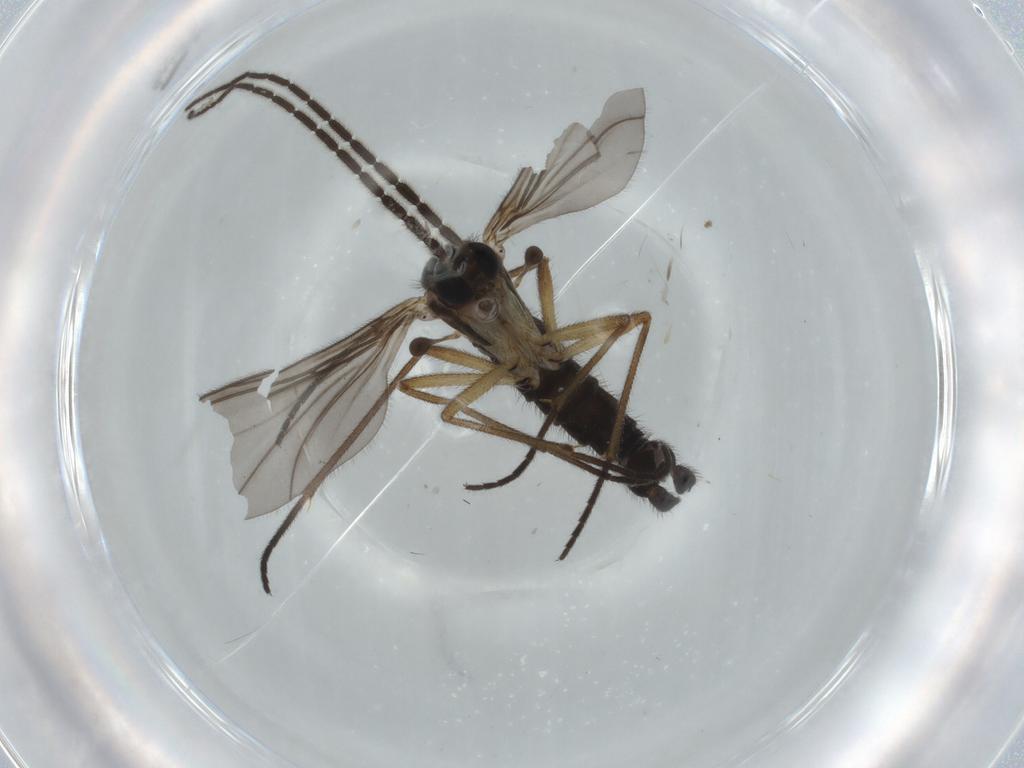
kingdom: Animalia
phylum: Arthropoda
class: Insecta
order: Diptera
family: Sciaridae
